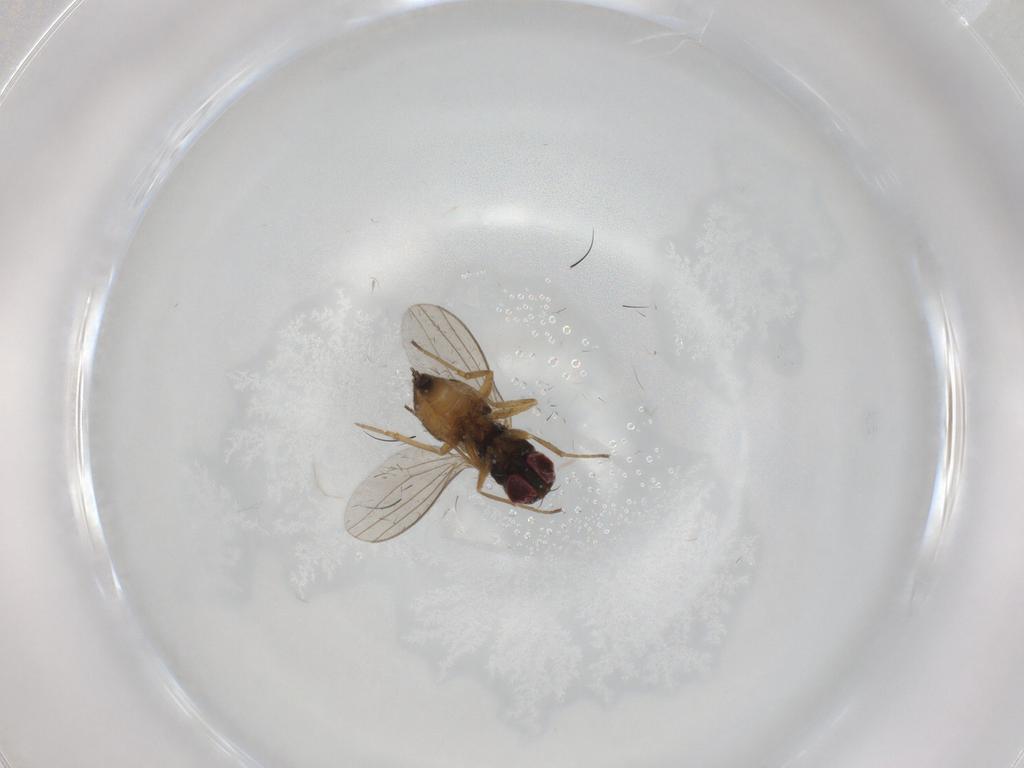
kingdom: Animalia
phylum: Arthropoda
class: Insecta
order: Diptera
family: Dolichopodidae
